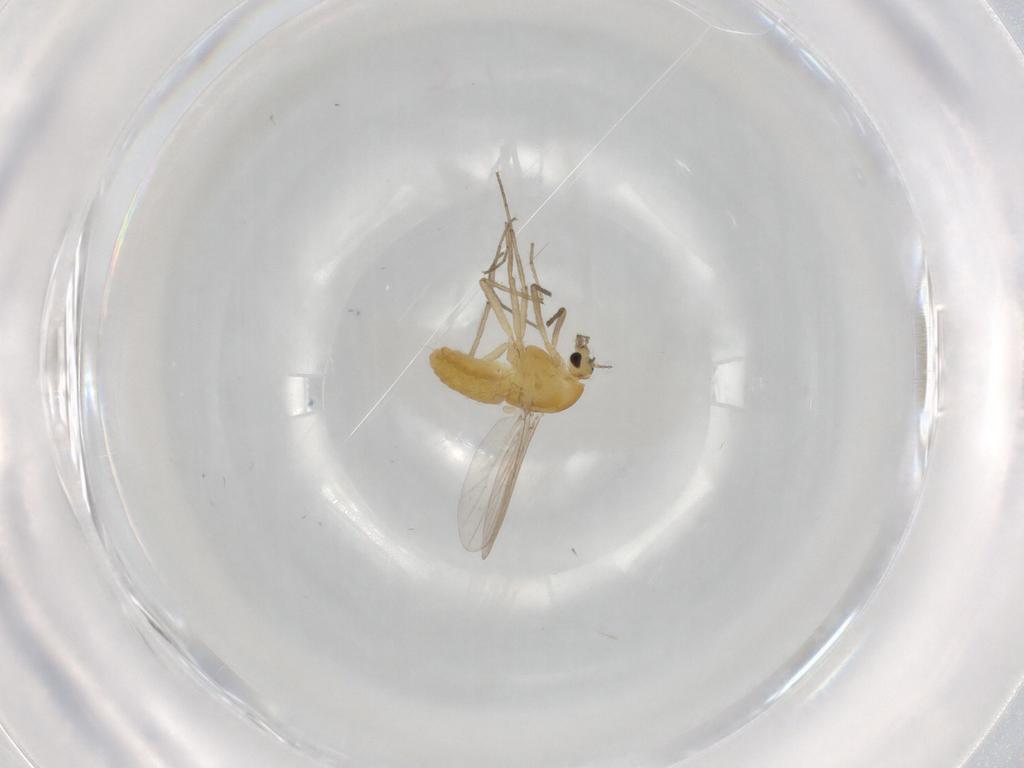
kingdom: Animalia
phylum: Arthropoda
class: Insecta
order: Diptera
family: Chironomidae
